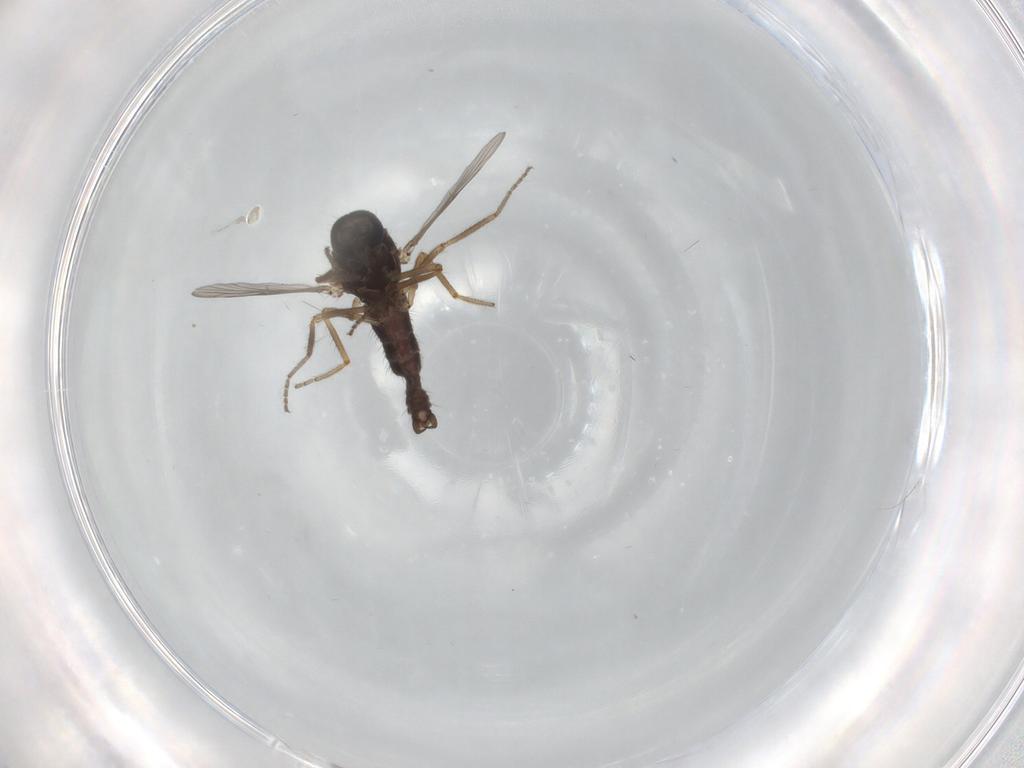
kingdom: Animalia
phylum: Arthropoda
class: Insecta
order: Diptera
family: Ceratopogonidae
